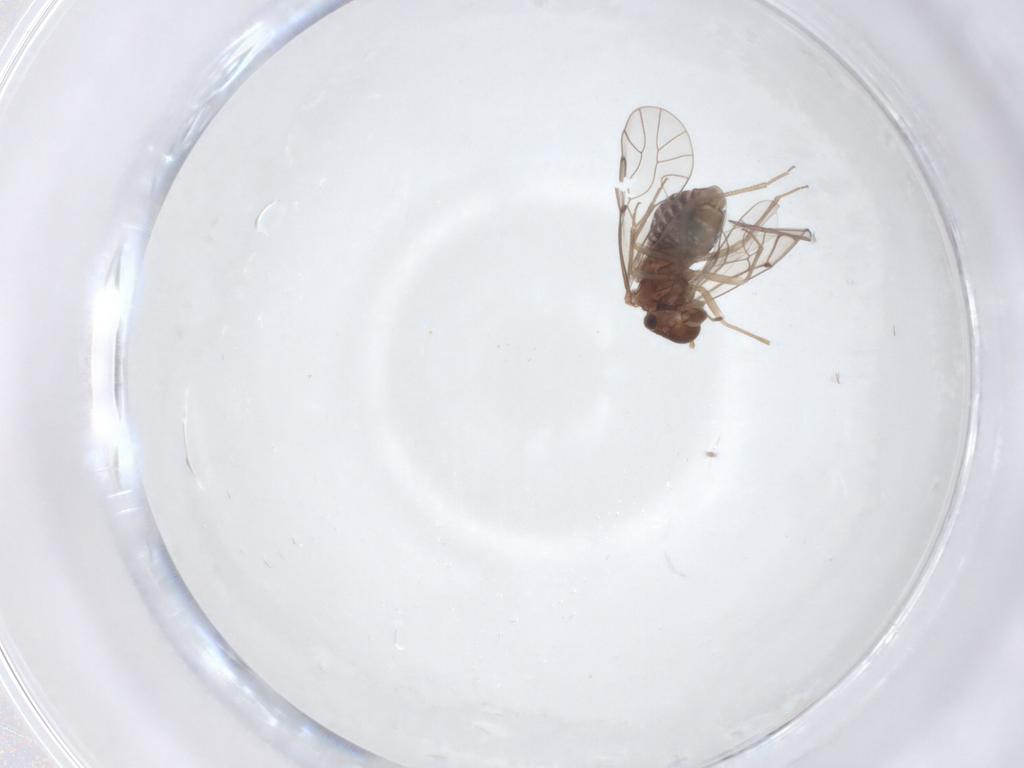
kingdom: Animalia
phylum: Arthropoda
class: Insecta
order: Psocodea
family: Lachesillidae
